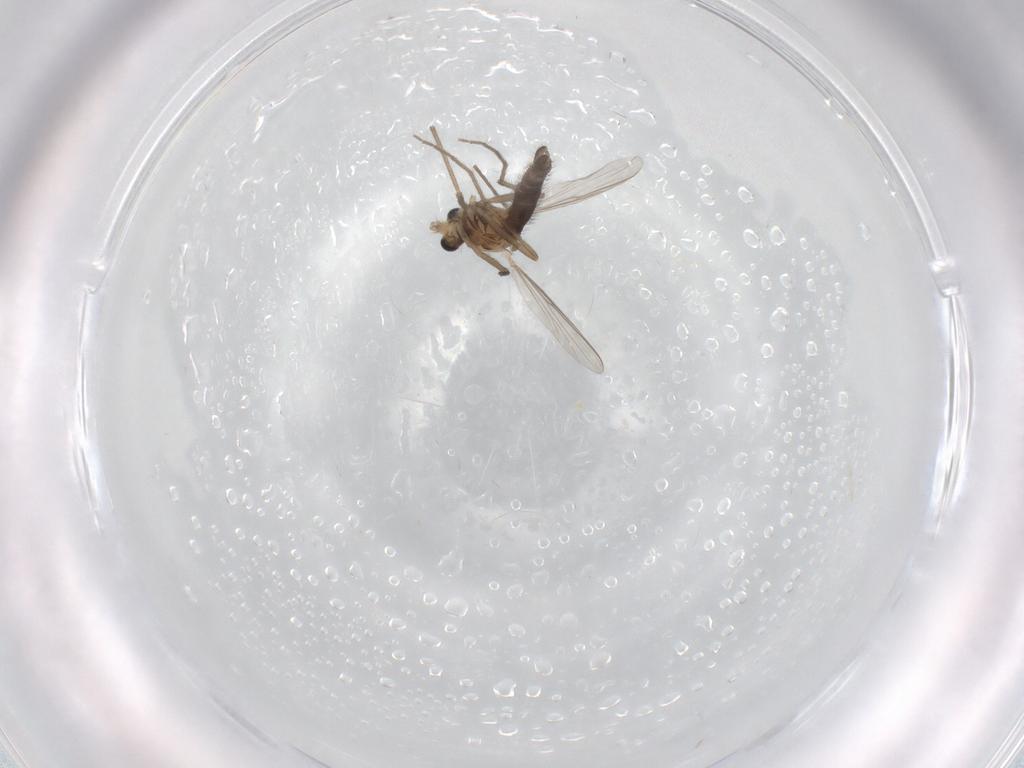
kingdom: Animalia
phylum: Arthropoda
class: Insecta
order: Diptera
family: Chironomidae
